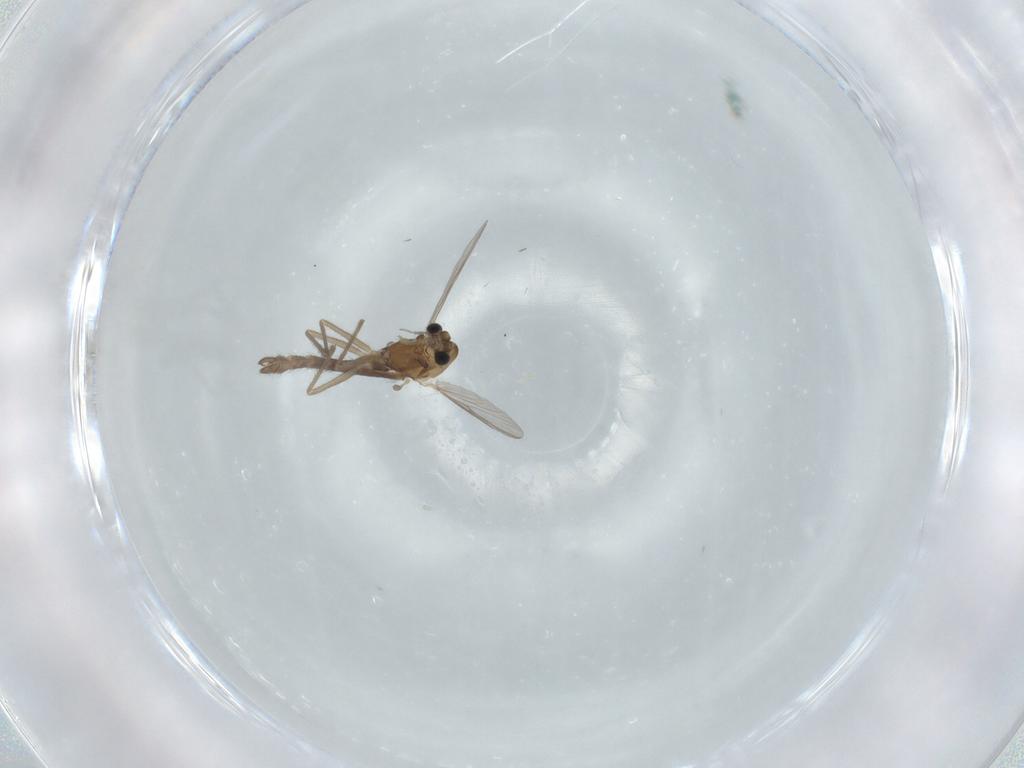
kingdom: Animalia
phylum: Arthropoda
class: Insecta
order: Diptera
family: Chironomidae
